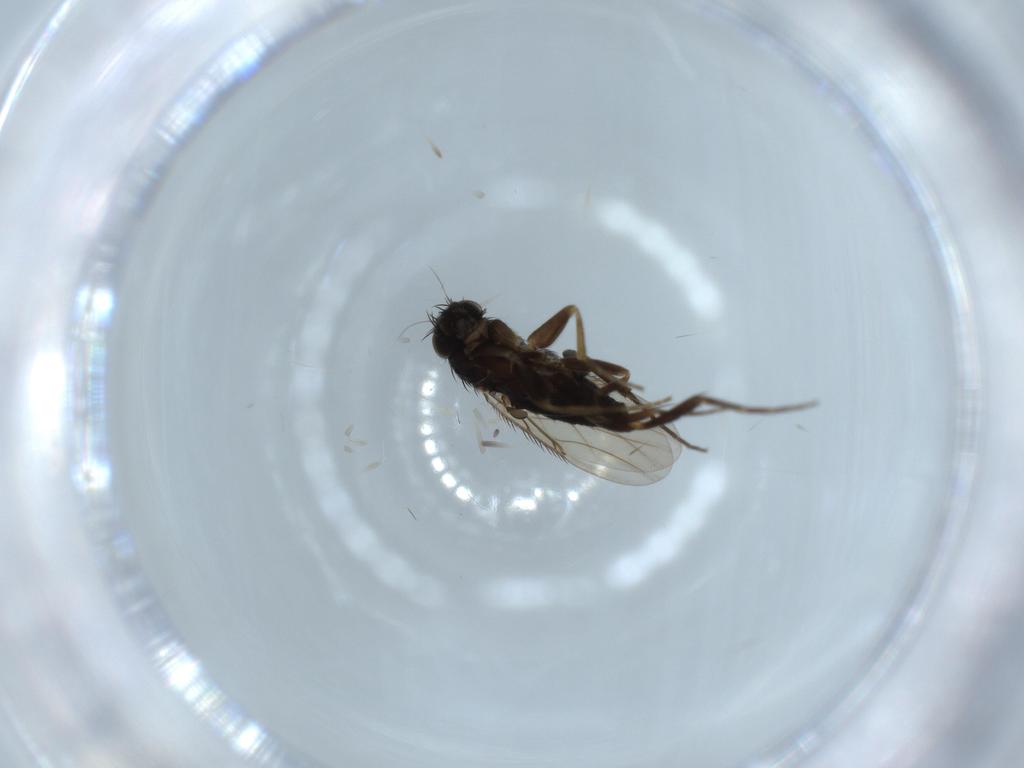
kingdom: Animalia
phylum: Arthropoda
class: Insecta
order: Diptera
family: Phoridae
